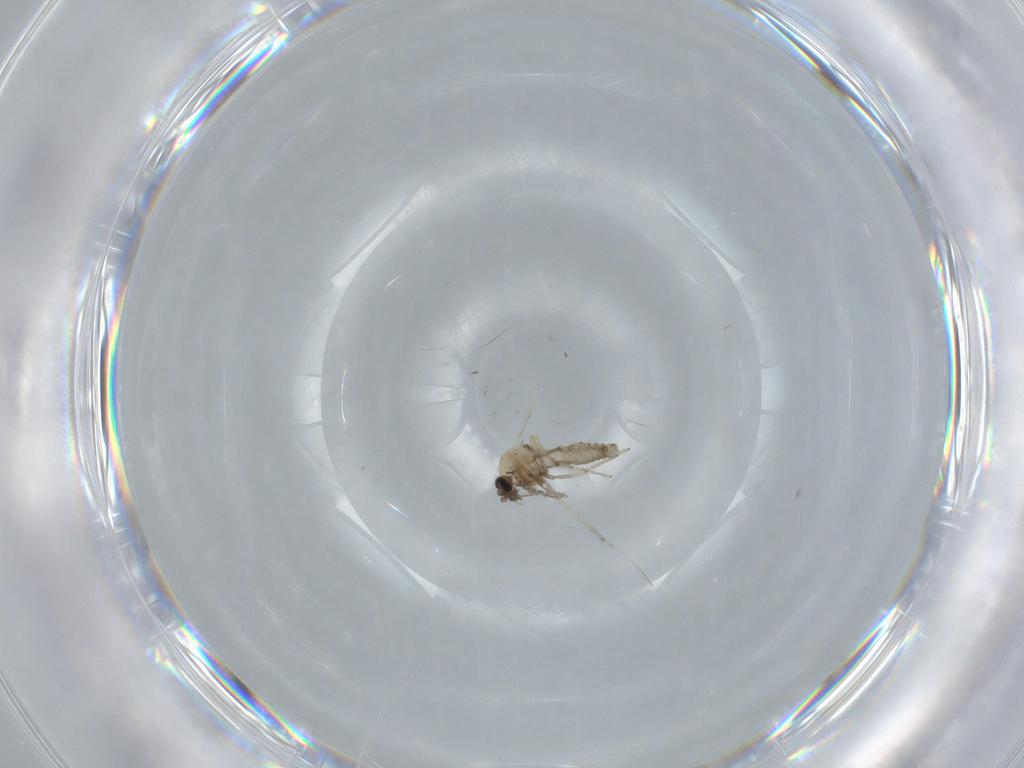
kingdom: Animalia
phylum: Arthropoda
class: Insecta
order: Diptera
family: Ceratopogonidae
